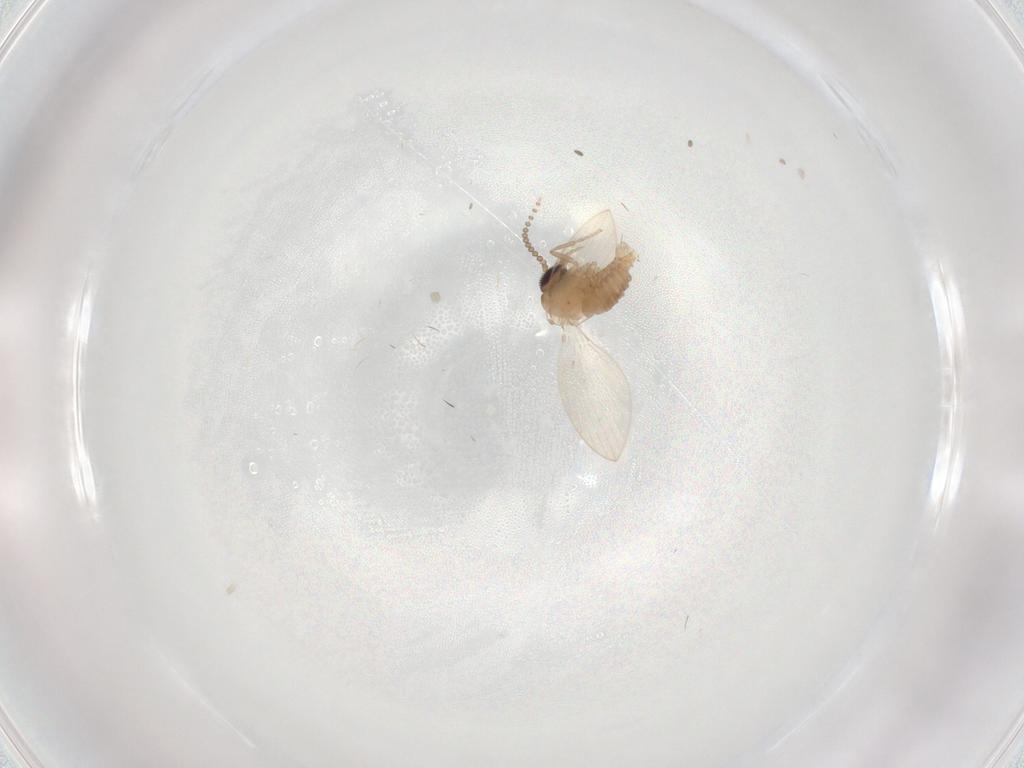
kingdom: Animalia
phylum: Arthropoda
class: Insecta
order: Diptera
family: Psychodidae
